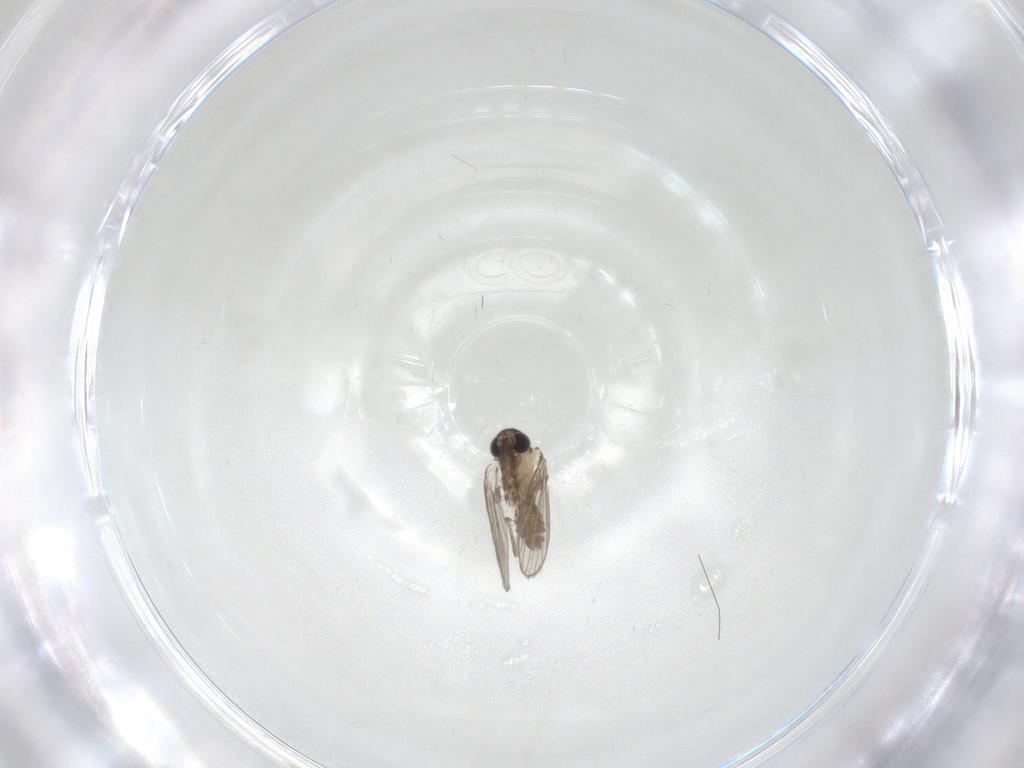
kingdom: Animalia
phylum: Arthropoda
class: Insecta
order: Diptera
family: Psychodidae
